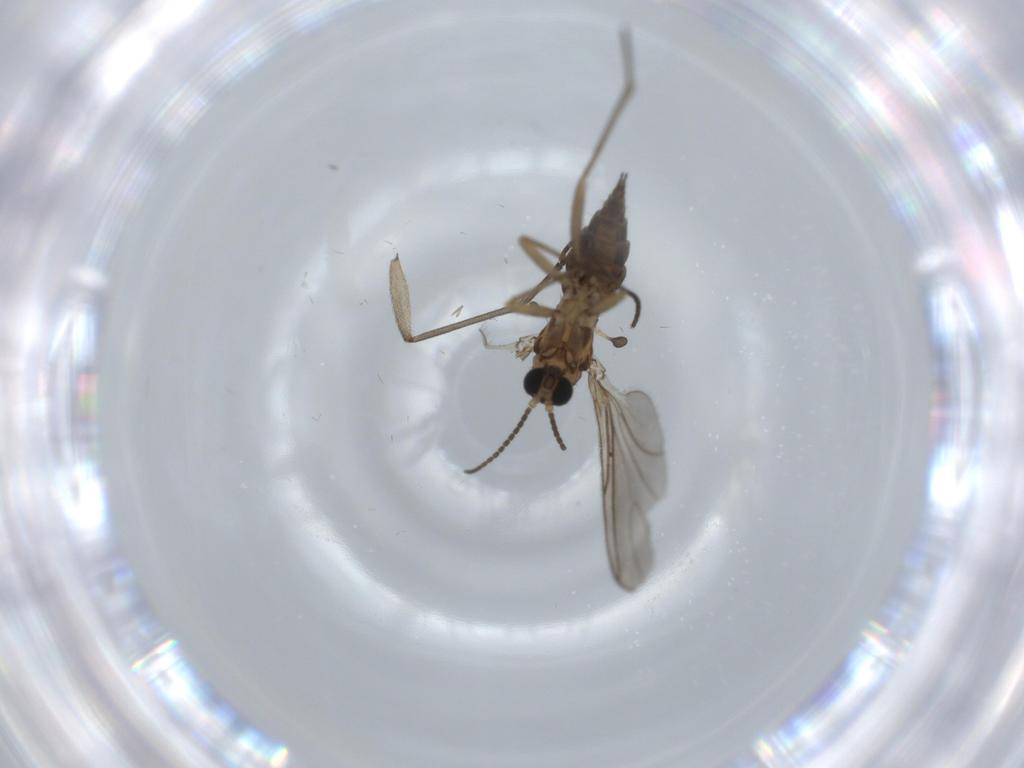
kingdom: Animalia
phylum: Arthropoda
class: Insecta
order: Diptera
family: Sciaridae
